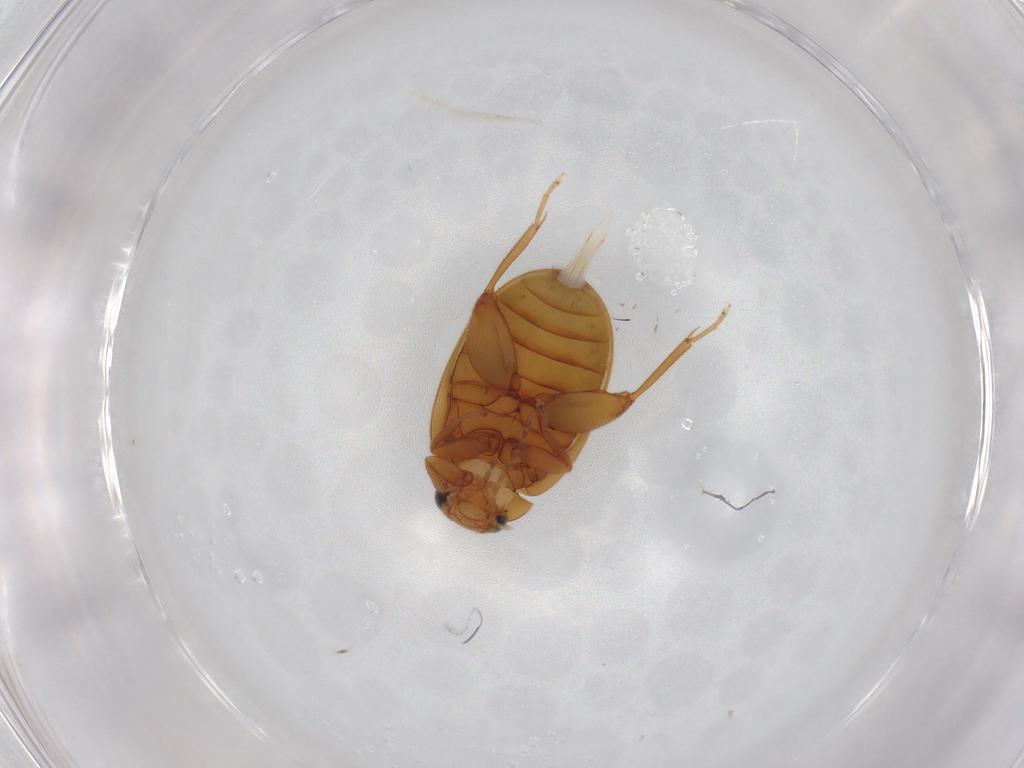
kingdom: Animalia
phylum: Arthropoda
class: Insecta
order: Coleoptera
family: Scirtidae
